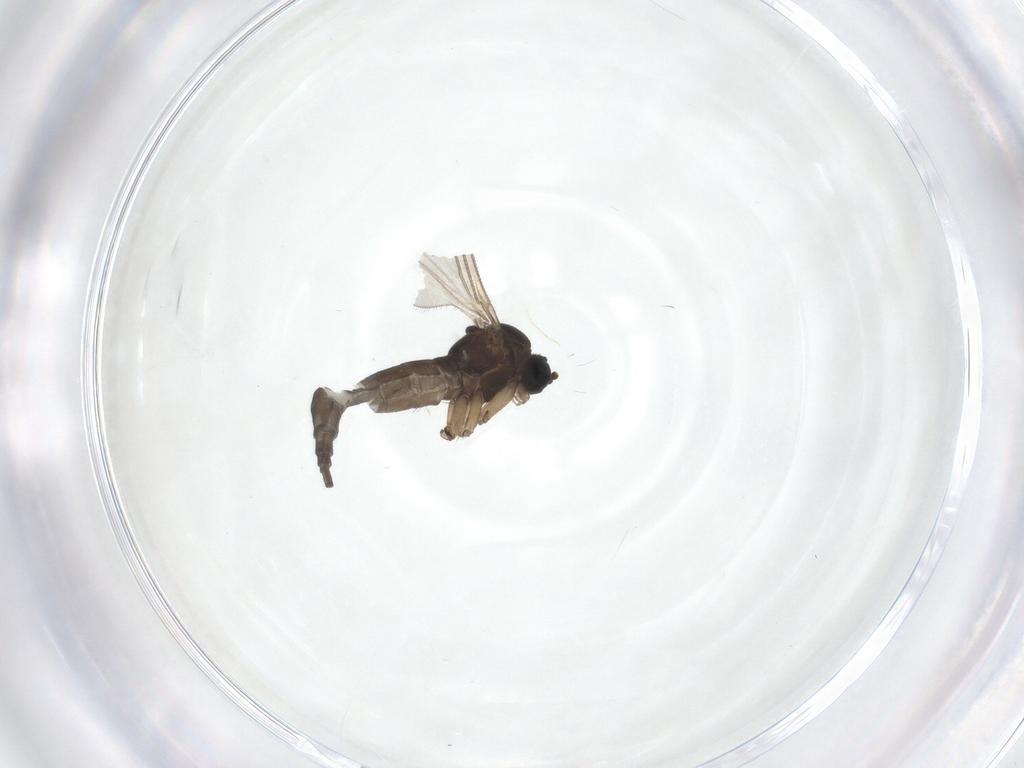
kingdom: Animalia
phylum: Arthropoda
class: Insecta
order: Diptera
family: Sciaridae
